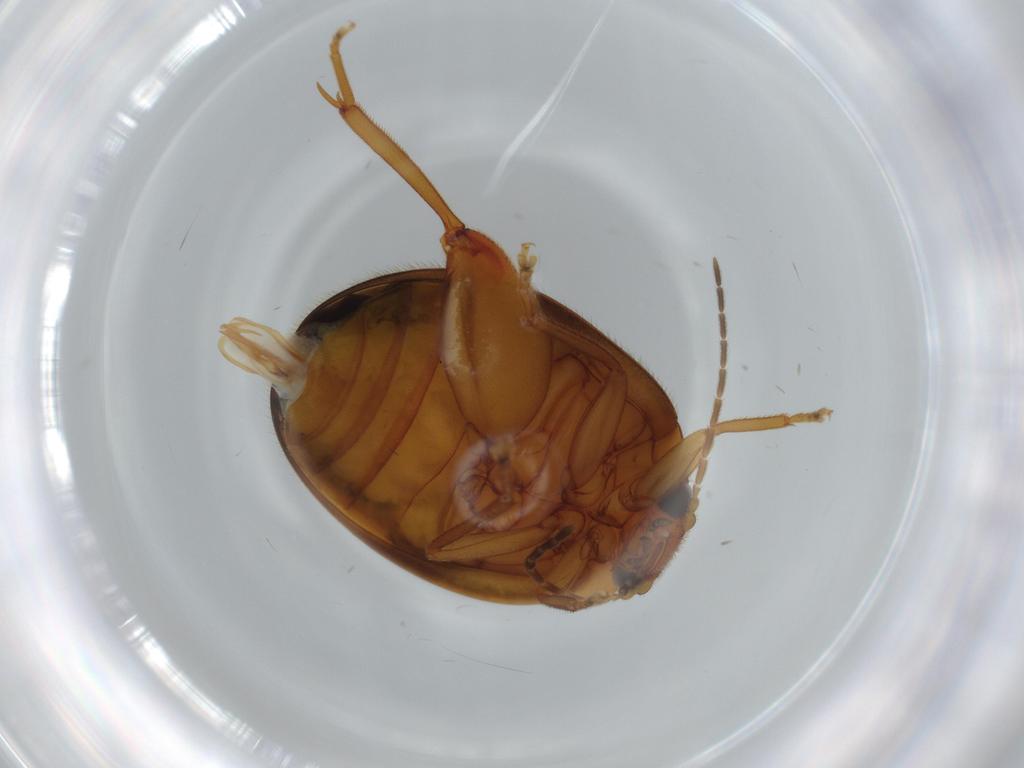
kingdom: Animalia
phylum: Arthropoda
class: Insecta
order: Coleoptera
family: Scirtidae
